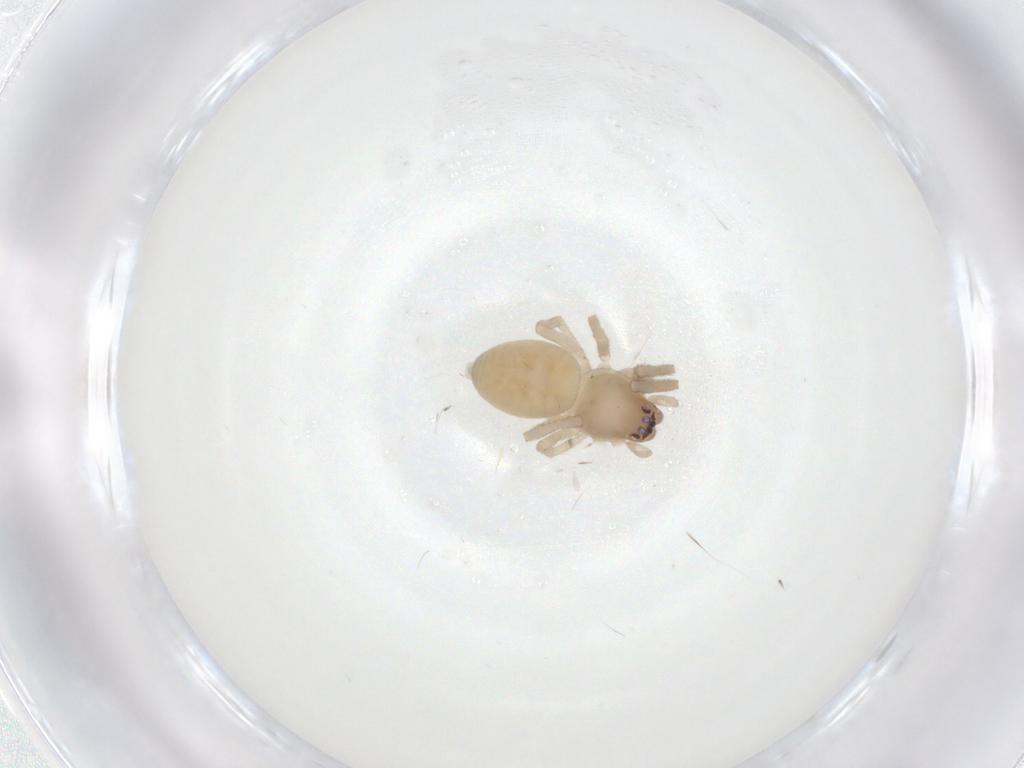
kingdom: Animalia
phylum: Arthropoda
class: Arachnida
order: Araneae
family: Trachelidae
